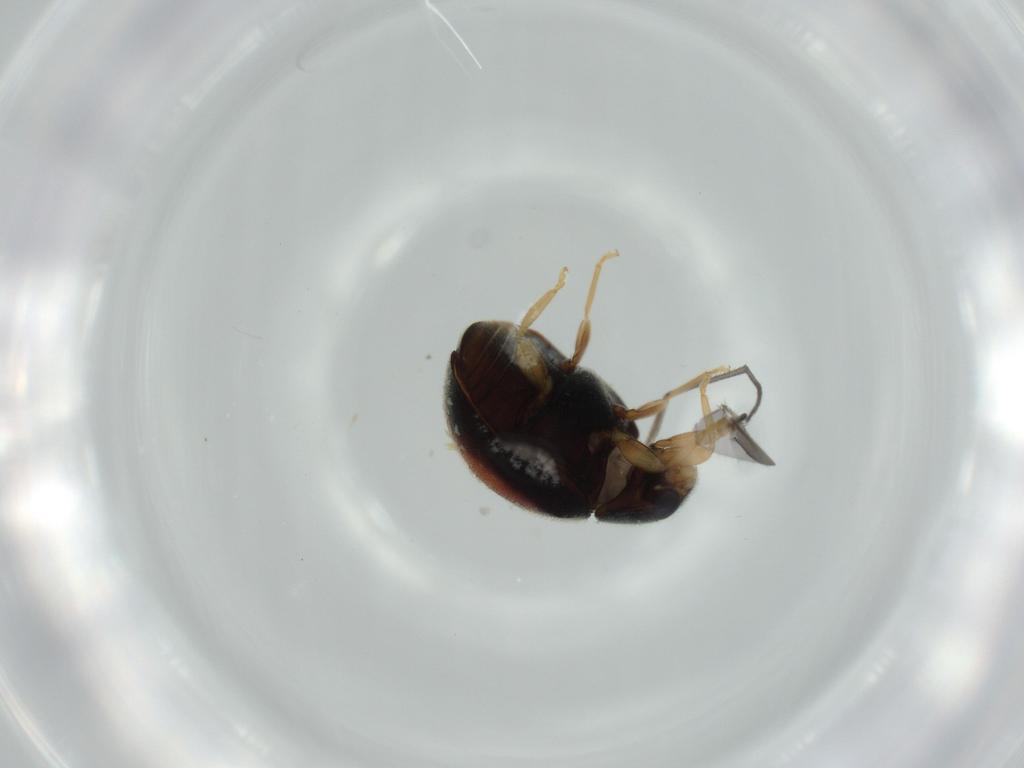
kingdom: Animalia
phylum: Arthropoda
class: Insecta
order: Coleoptera
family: Coccinellidae
